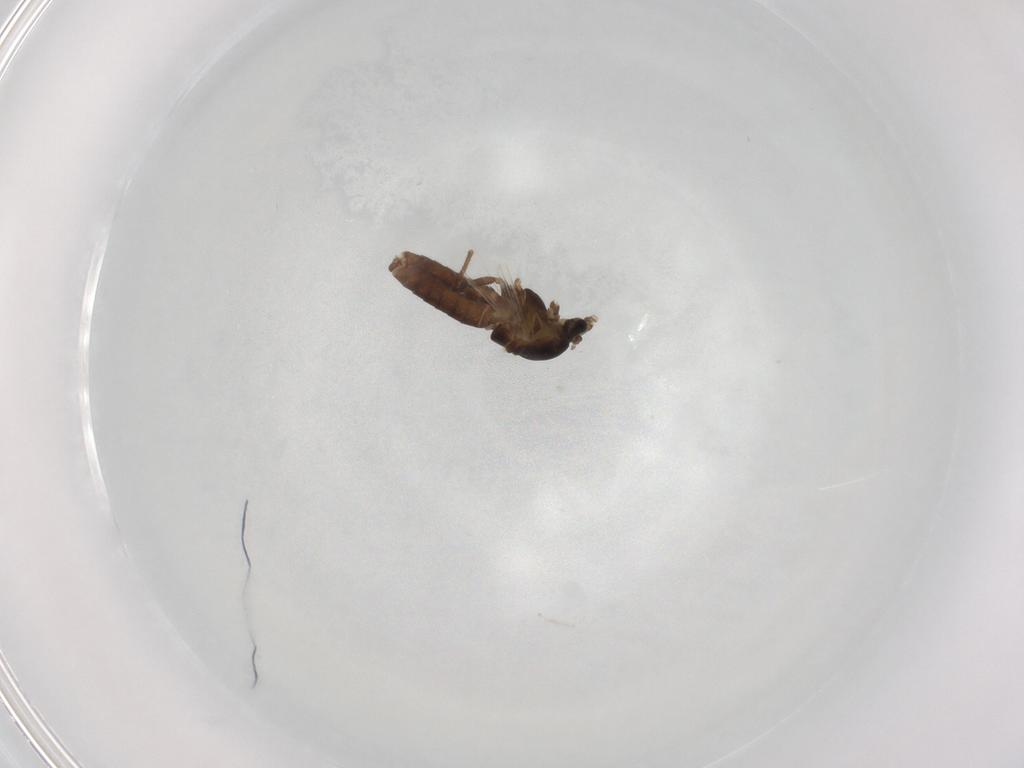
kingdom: Animalia
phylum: Arthropoda
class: Insecta
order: Diptera
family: Chironomidae
